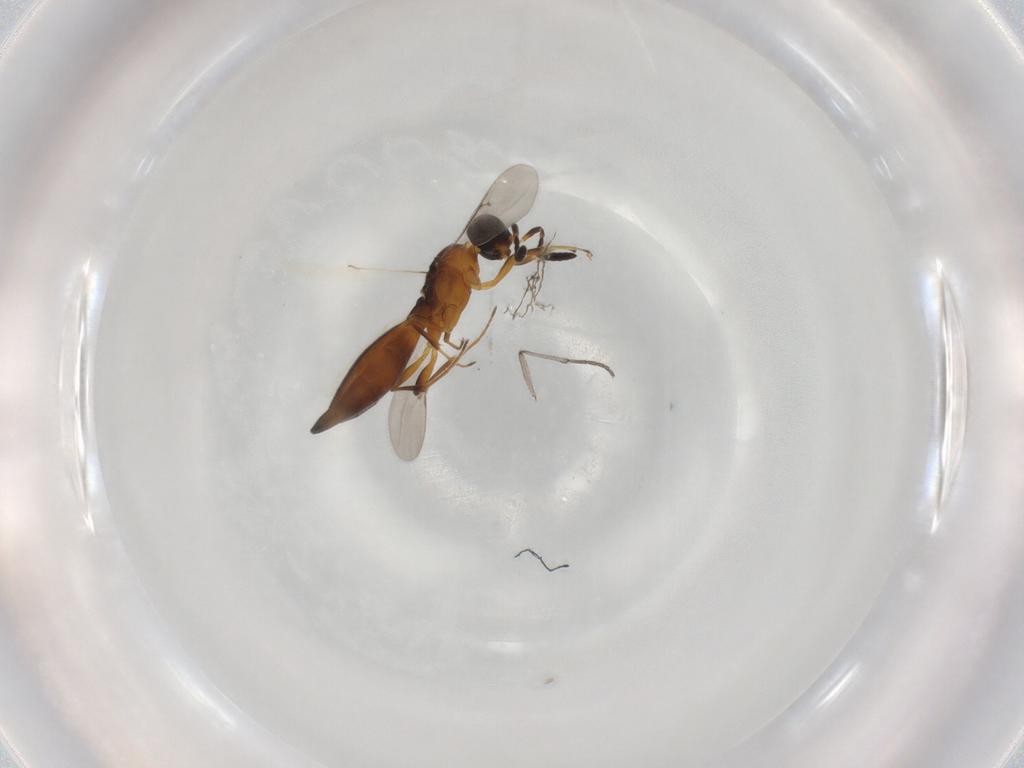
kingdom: Animalia
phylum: Arthropoda
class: Insecta
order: Hymenoptera
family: Scelionidae
